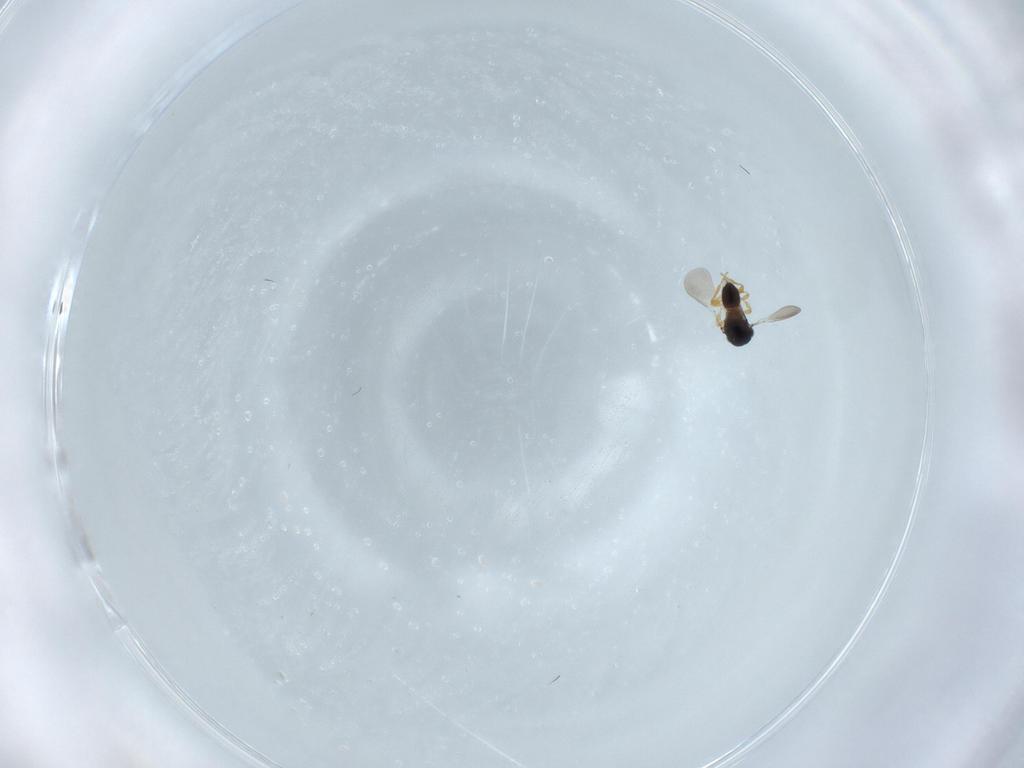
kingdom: Animalia
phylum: Arthropoda
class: Insecta
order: Hymenoptera
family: Platygastridae
